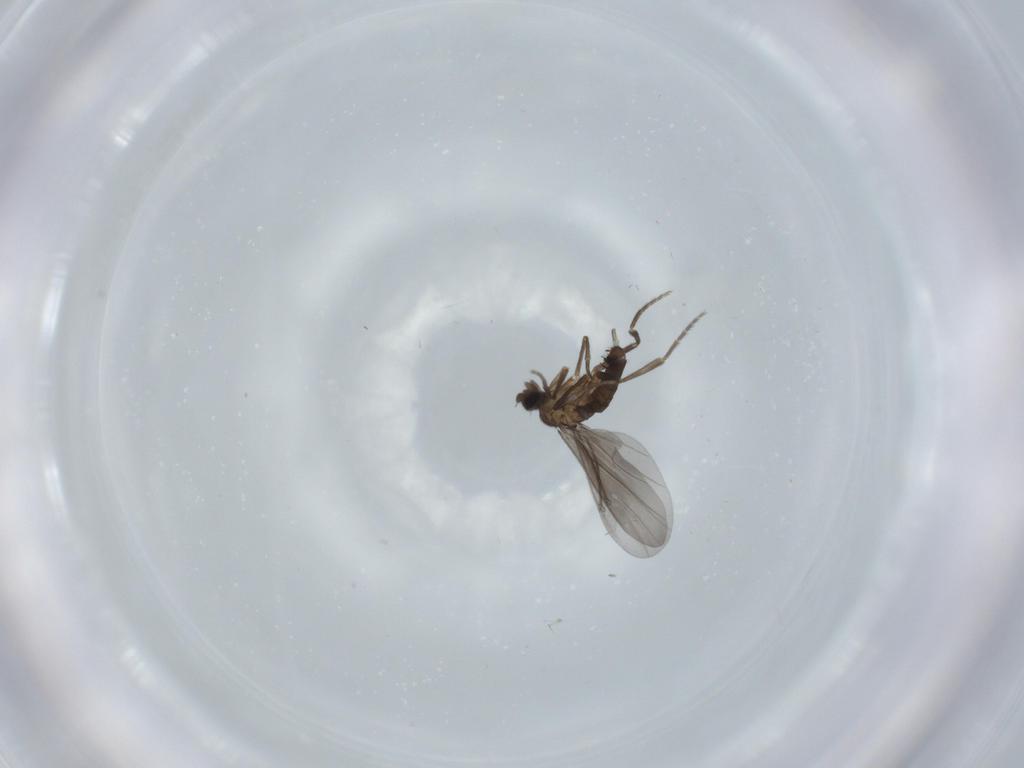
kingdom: Animalia
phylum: Arthropoda
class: Insecta
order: Diptera
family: Phoridae
